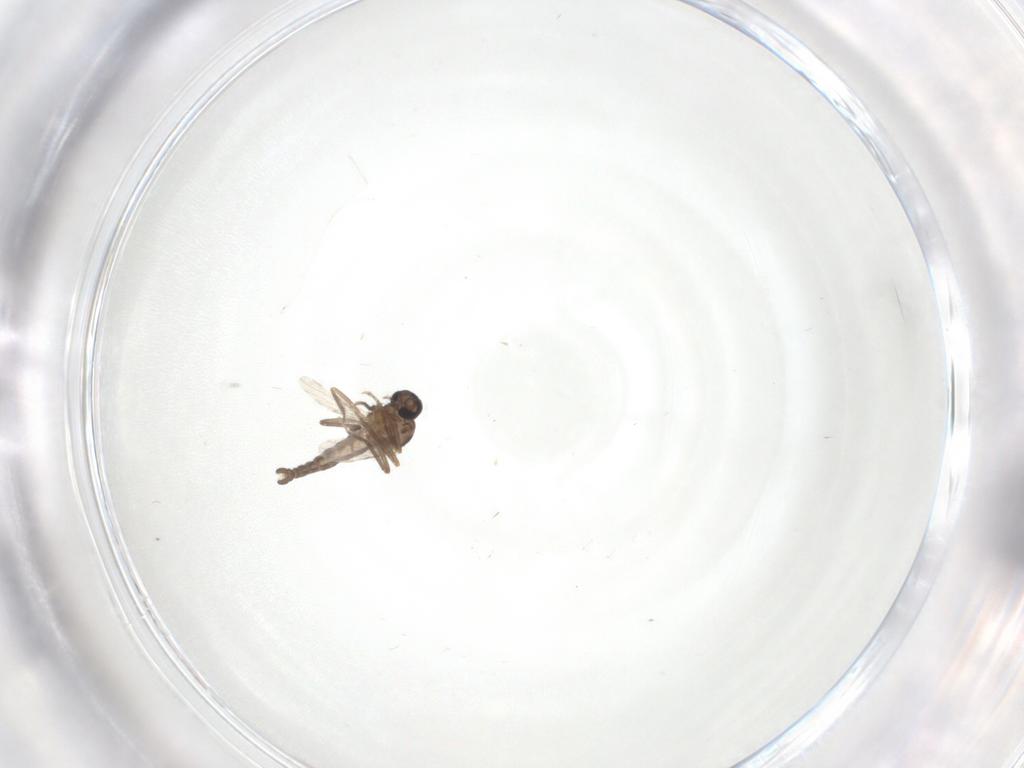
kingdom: Animalia
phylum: Arthropoda
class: Insecta
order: Diptera
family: Ceratopogonidae
